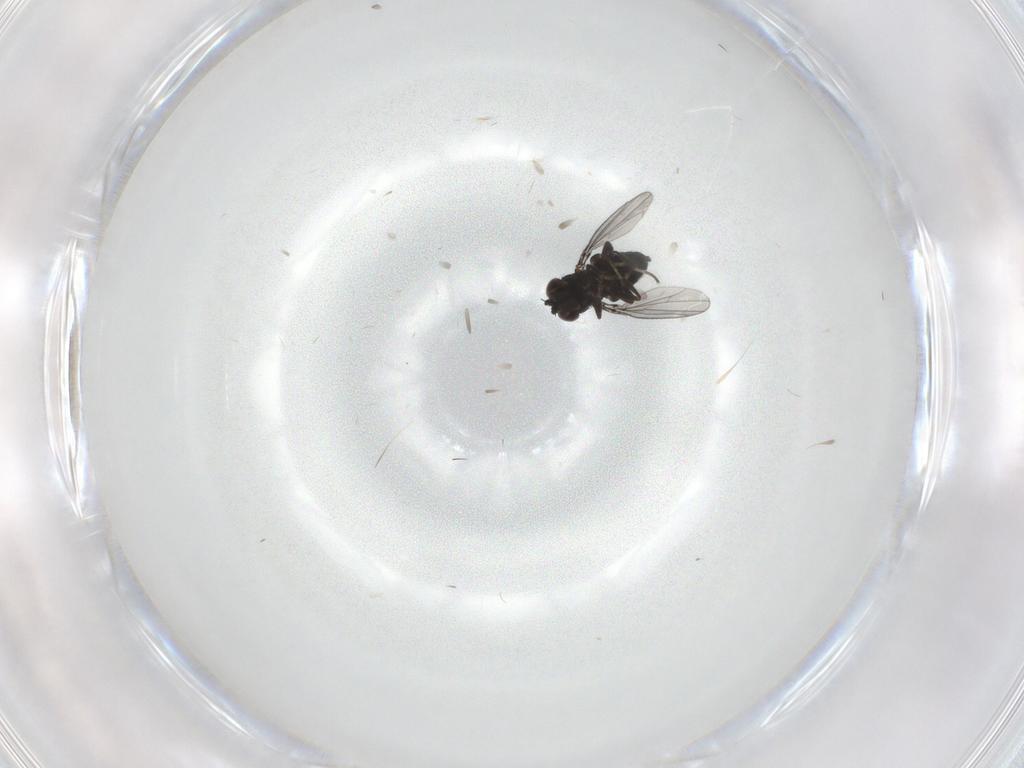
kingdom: Animalia
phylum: Arthropoda
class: Insecta
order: Diptera
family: Dolichopodidae
